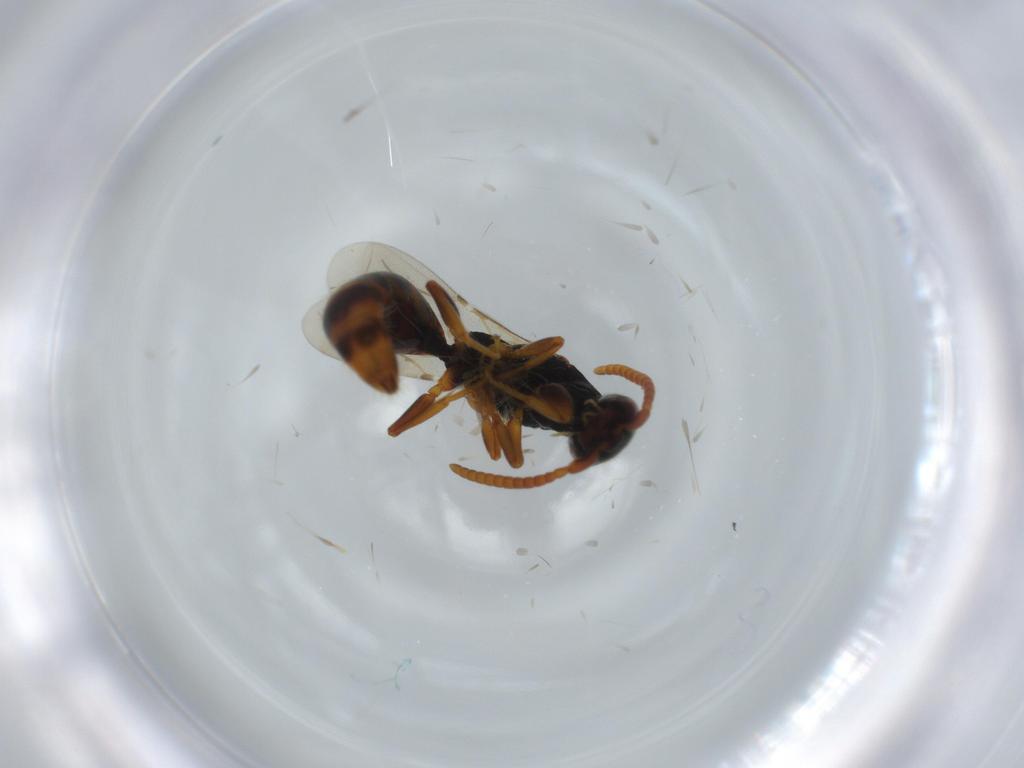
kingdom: Animalia
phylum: Arthropoda
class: Insecta
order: Hymenoptera
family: Bethylidae
